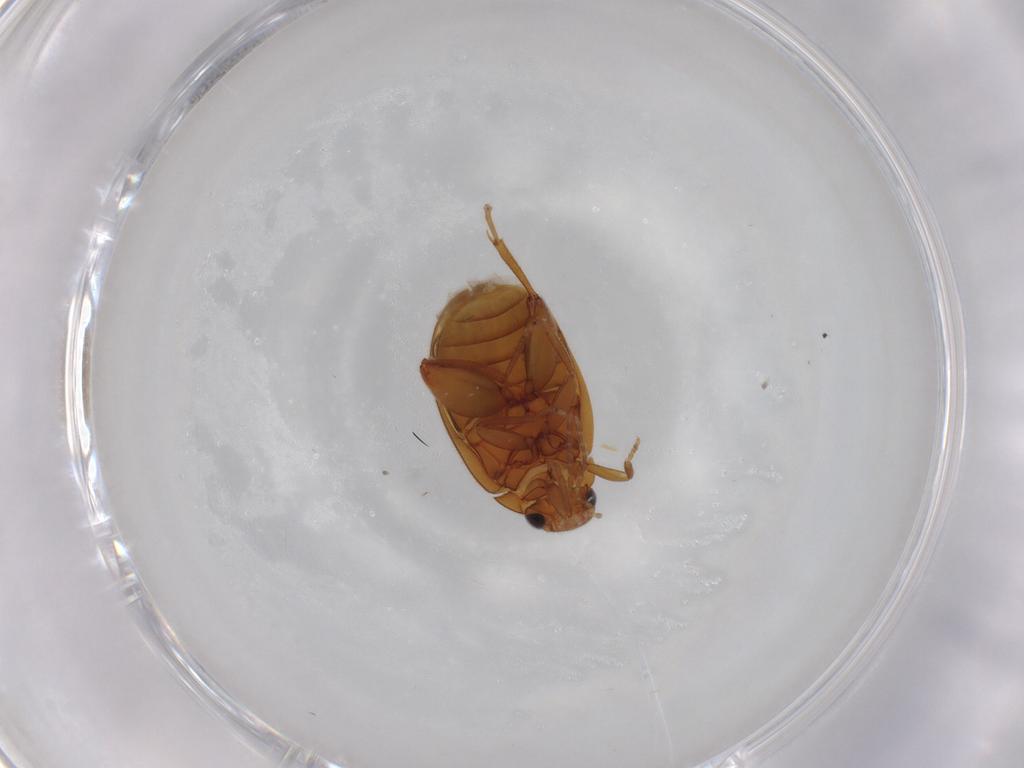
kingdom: Animalia
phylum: Arthropoda
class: Insecta
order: Coleoptera
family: Scirtidae
